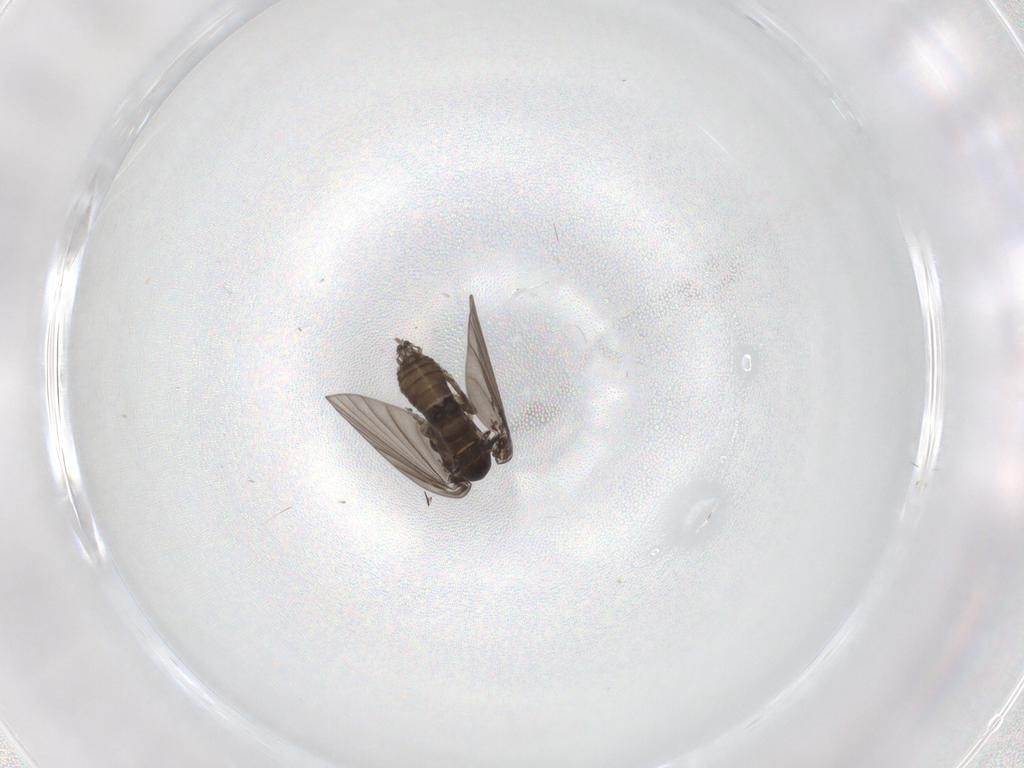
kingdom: Animalia
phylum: Arthropoda
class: Insecta
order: Diptera
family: Psychodidae
